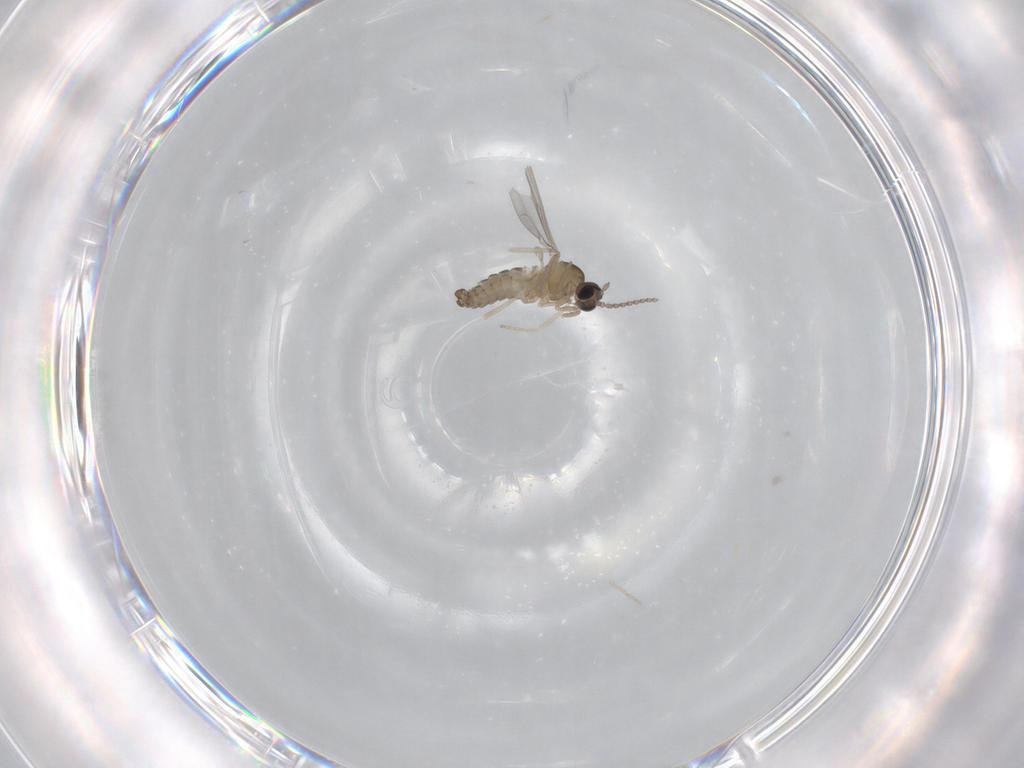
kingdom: Animalia
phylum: Arthropoda
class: Insecta
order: Diptera
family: Cecidomyiidae
